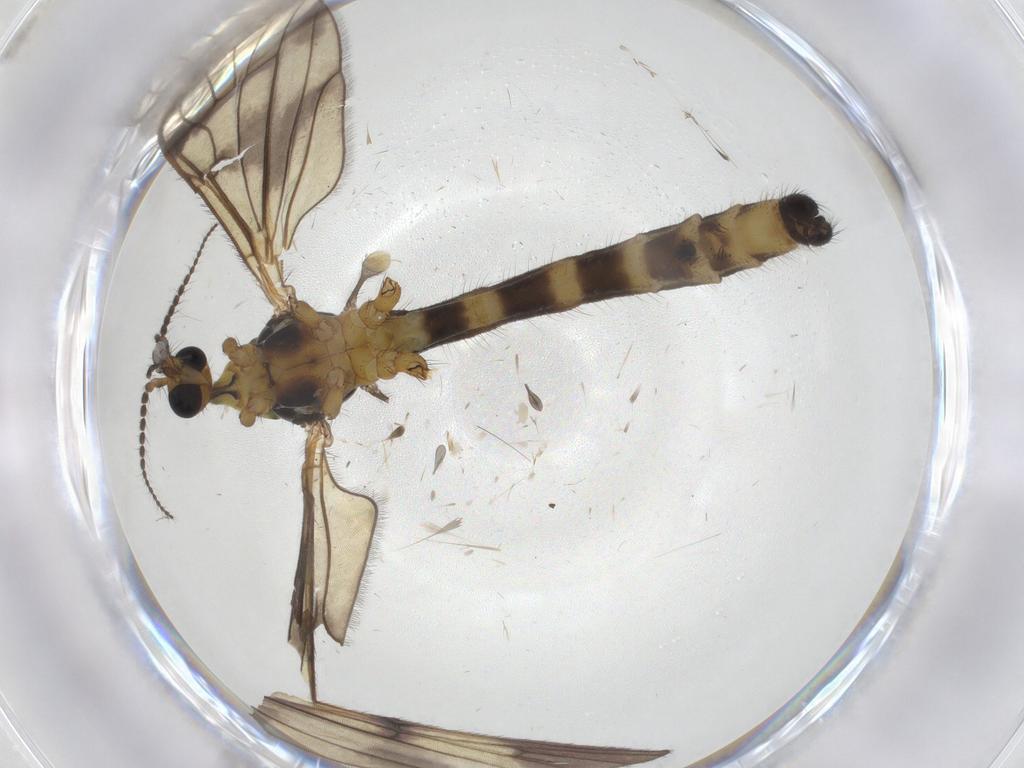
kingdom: Animalia
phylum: Arthropoda
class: Insecta
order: Diptera
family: Limoniidae
